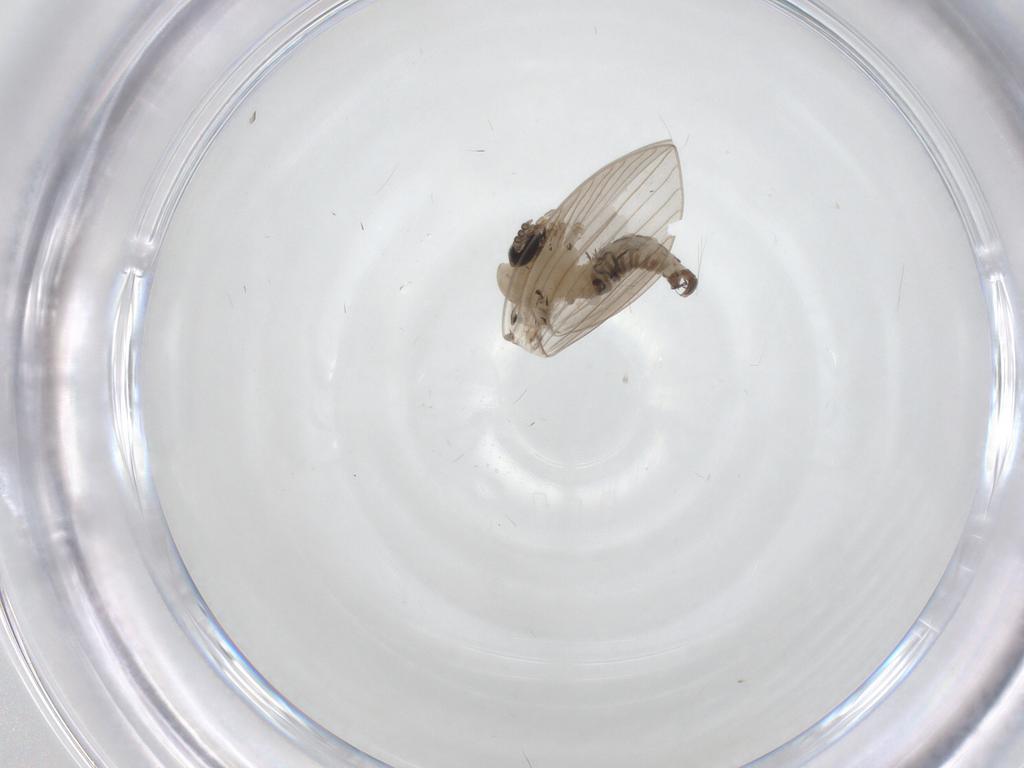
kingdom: Animalia
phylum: Arthropoda
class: Insecta
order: Diptera
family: Psychodidae
